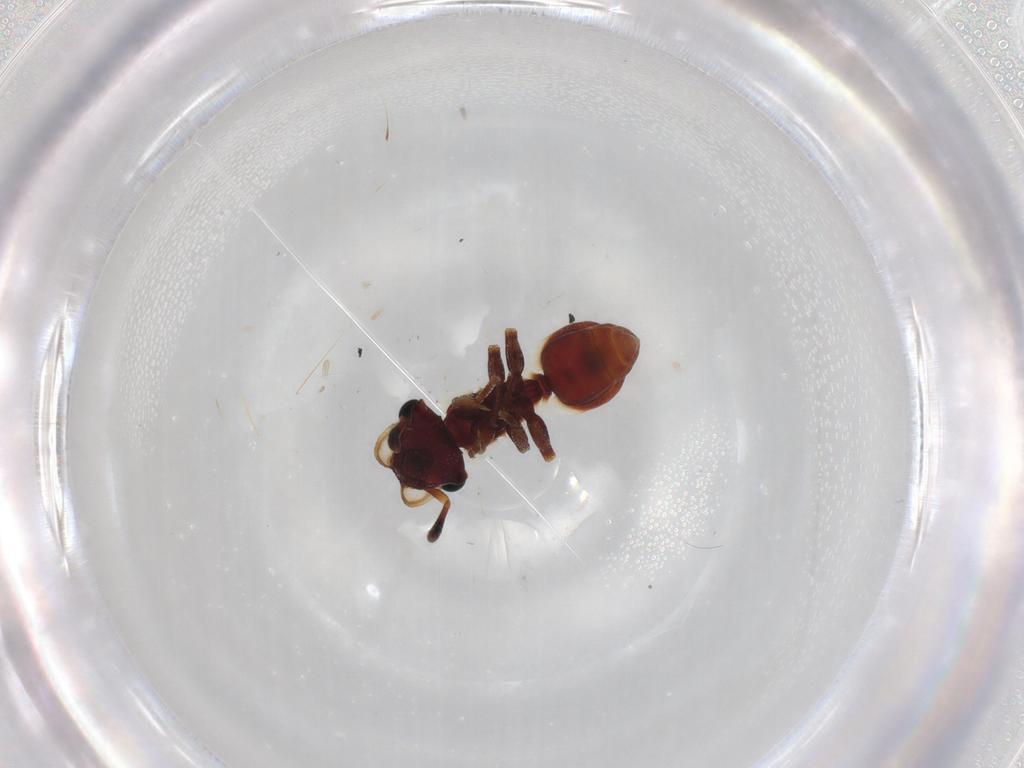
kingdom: Animalia
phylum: Arthropoda
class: Insecta
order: Hymenoptera
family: Formicidae
